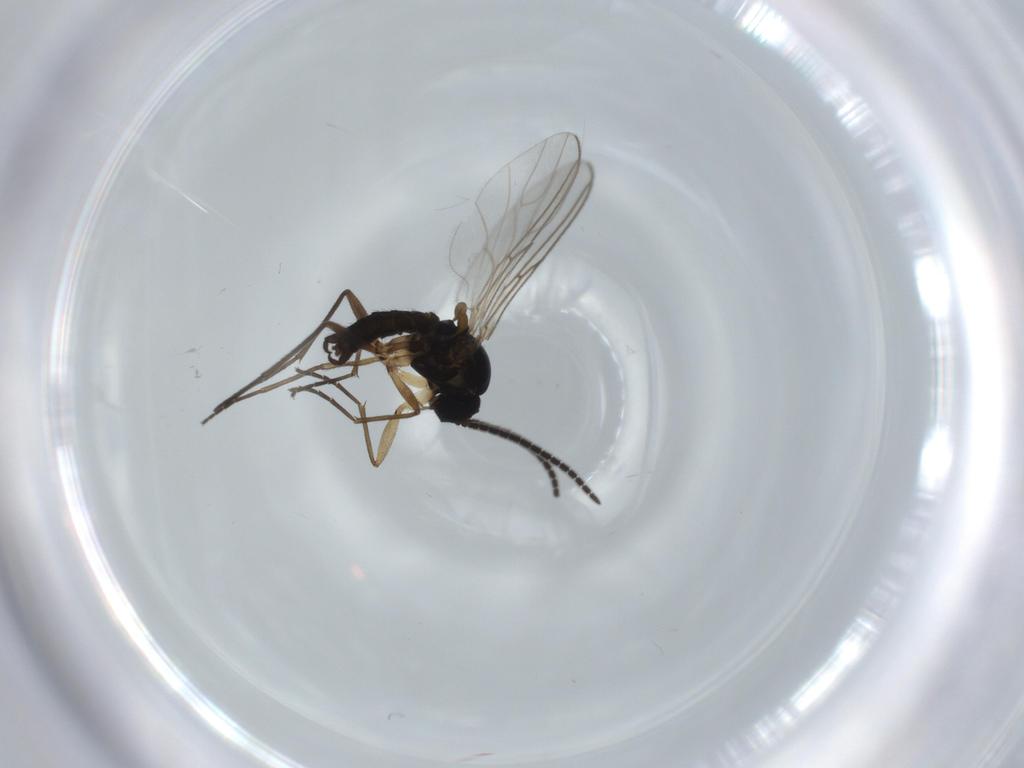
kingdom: Animalia
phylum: Arthropoda
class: Insecta
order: Diptera
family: Sciaridae
